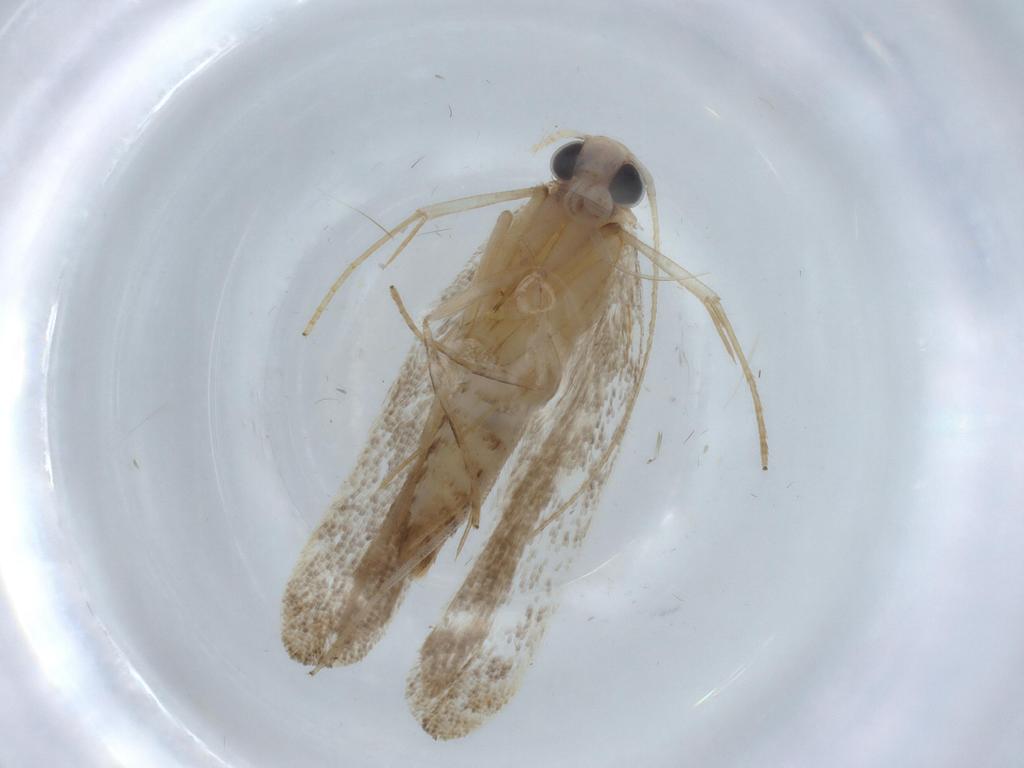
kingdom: Animalia
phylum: Arthropoda
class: Insecta
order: Lepidoptera
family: Gelechiidae
